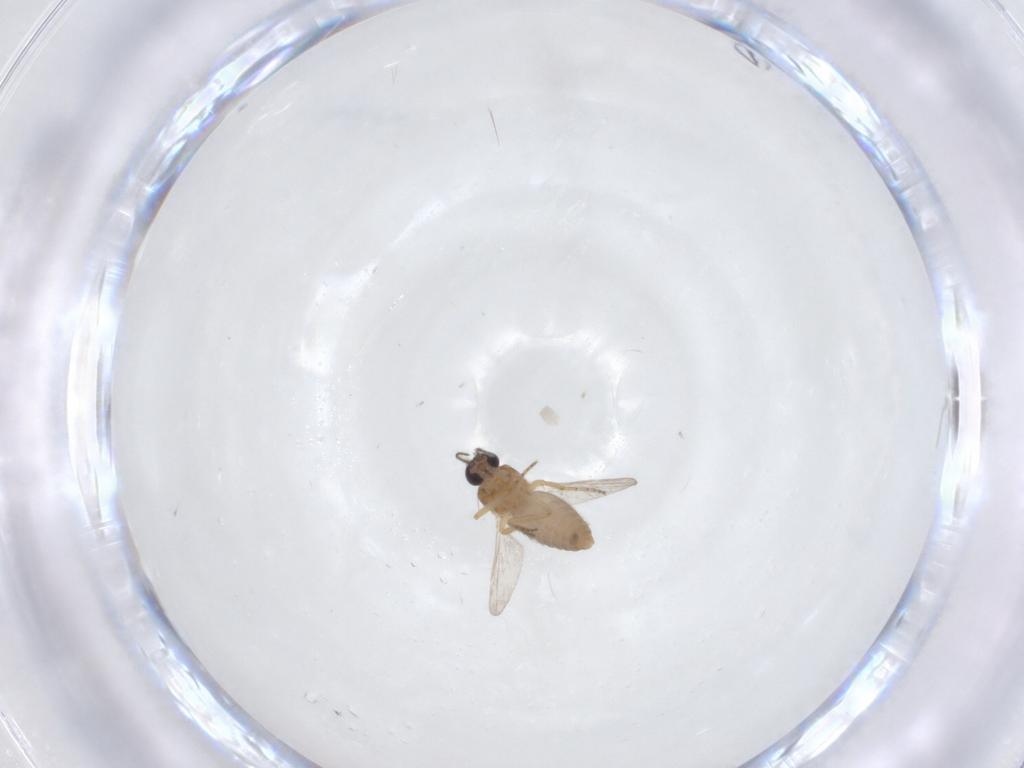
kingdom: Animalia
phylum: Arthropoda
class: Insecta
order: Diptera
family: Ceratopogonidae
